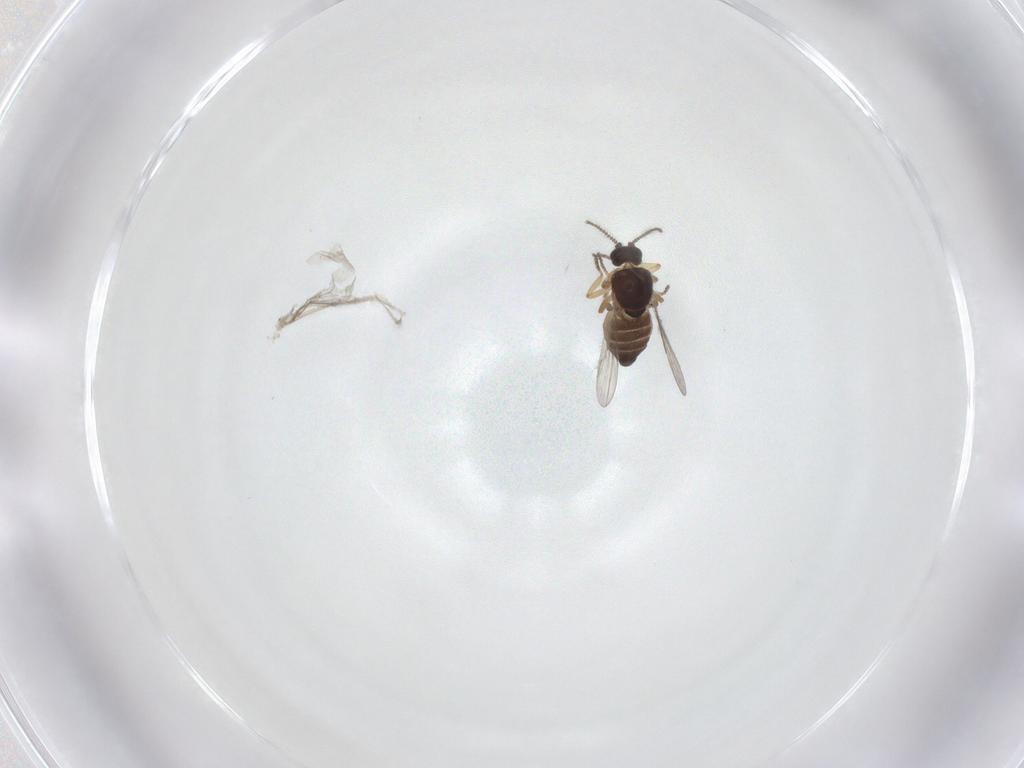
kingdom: Animalia
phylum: Arthropoda
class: Insecta
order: Diptera
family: Ceratopogonidae
